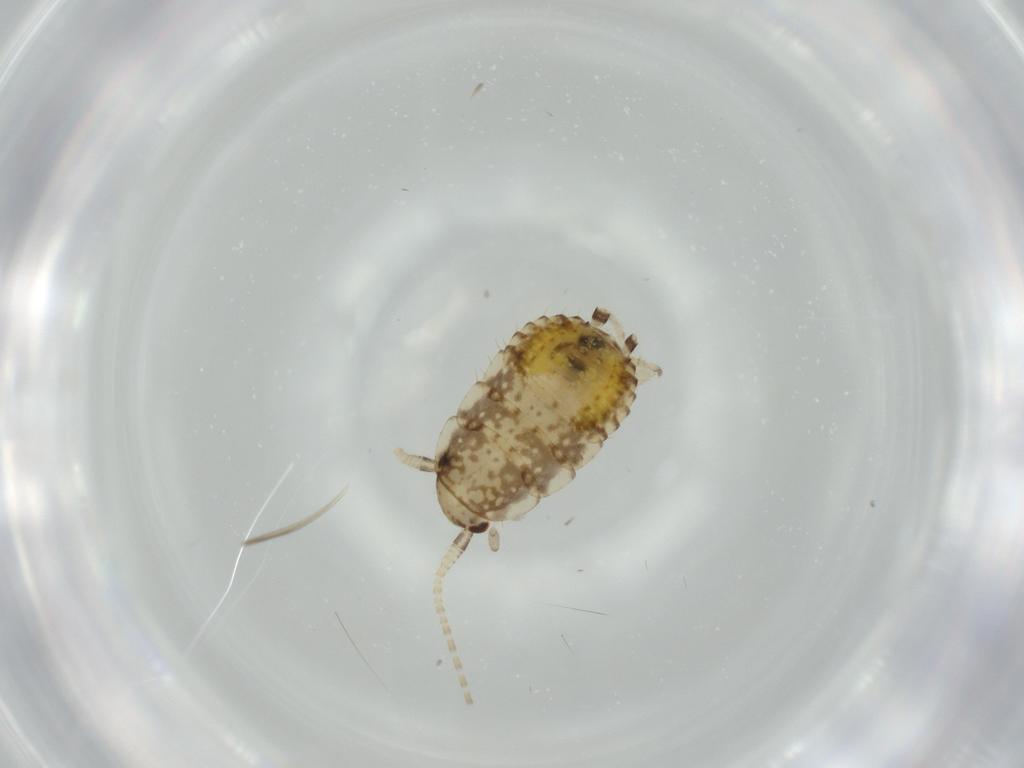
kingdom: Animalia
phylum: Arthropoda
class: Insecta
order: Blattodea
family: Ectobiidae
